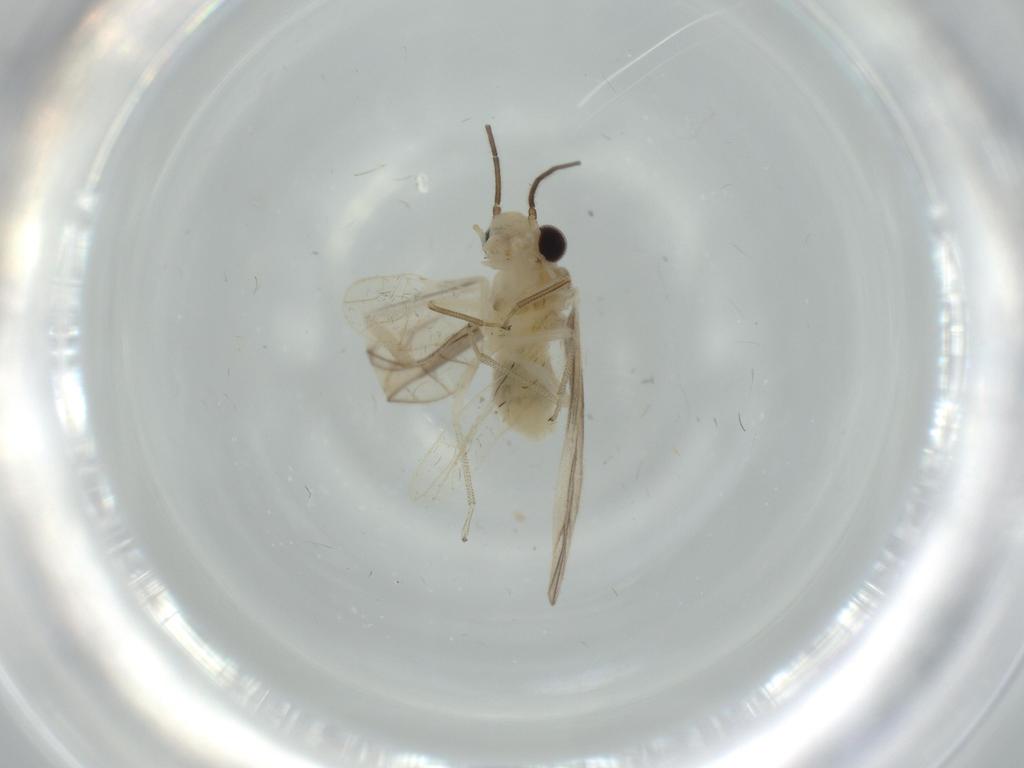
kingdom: Animalia
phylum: Arthropoda
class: Insecta
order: Psocodea
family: Caeciliusidae
